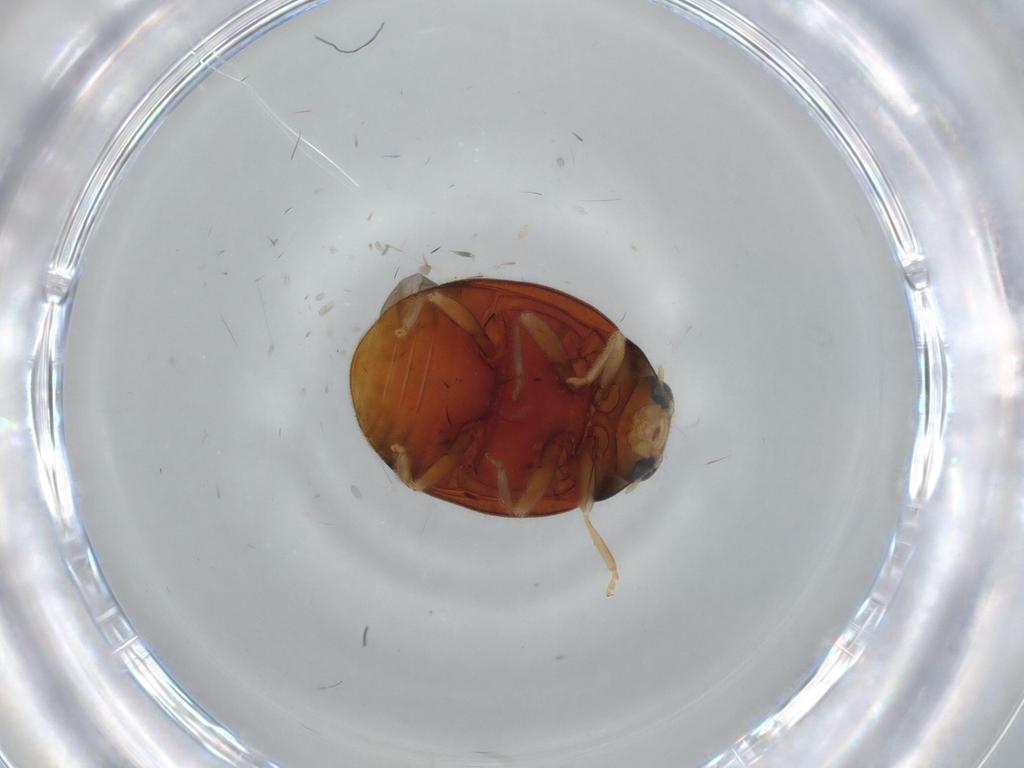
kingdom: Animalia
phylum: Arthropoda
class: Insecta
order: Coleoptera
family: Coccinellidae
